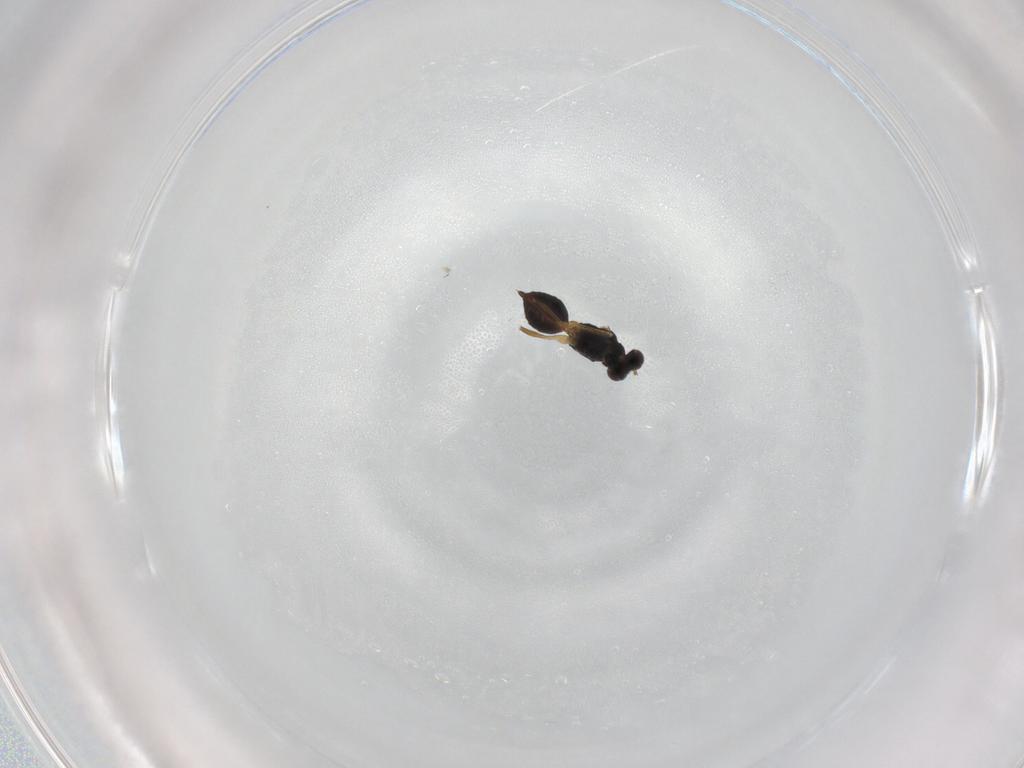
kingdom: Animalia
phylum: Arthropoda
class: Insecta
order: Hymenoptera
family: Eulophidae
